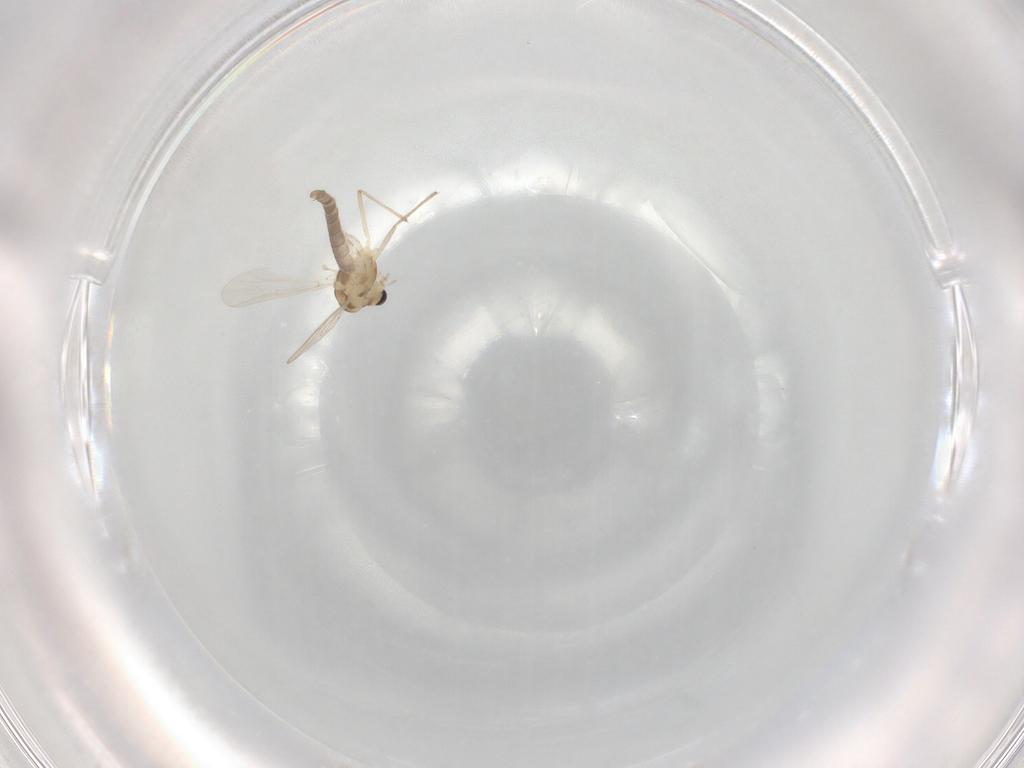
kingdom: Animalia
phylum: Arthropoda
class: Insecta
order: Diptera
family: Chironomidae
